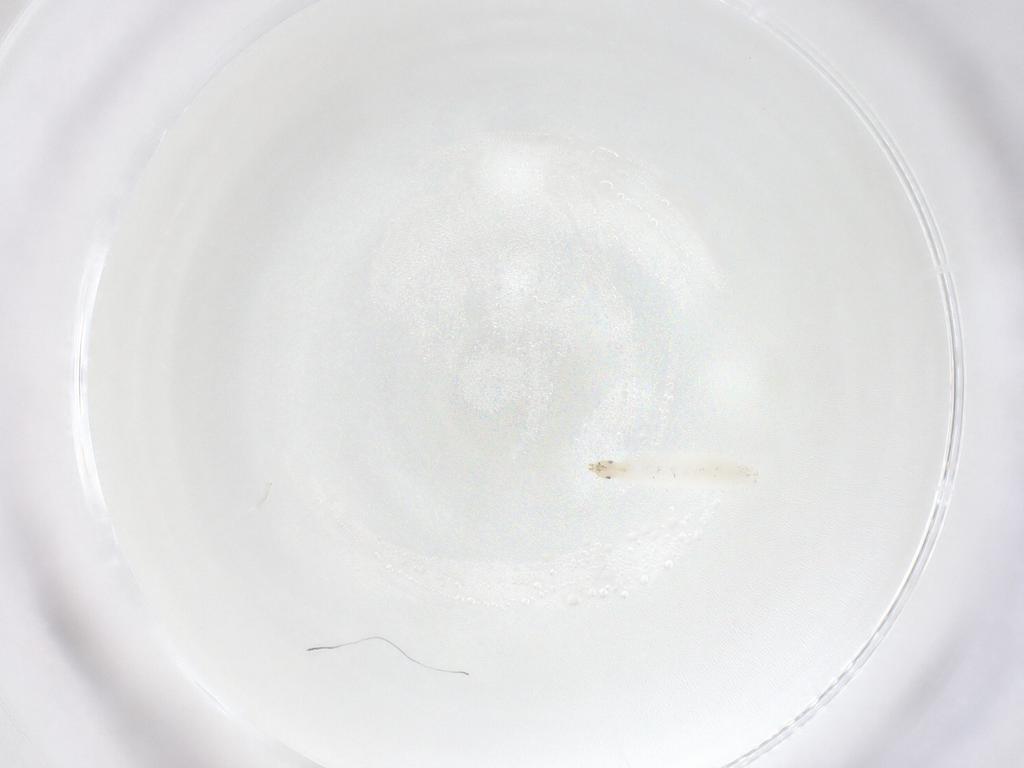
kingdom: Animalia
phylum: Arthropoda
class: Insecta
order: Diptera
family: Stratiomyidae
